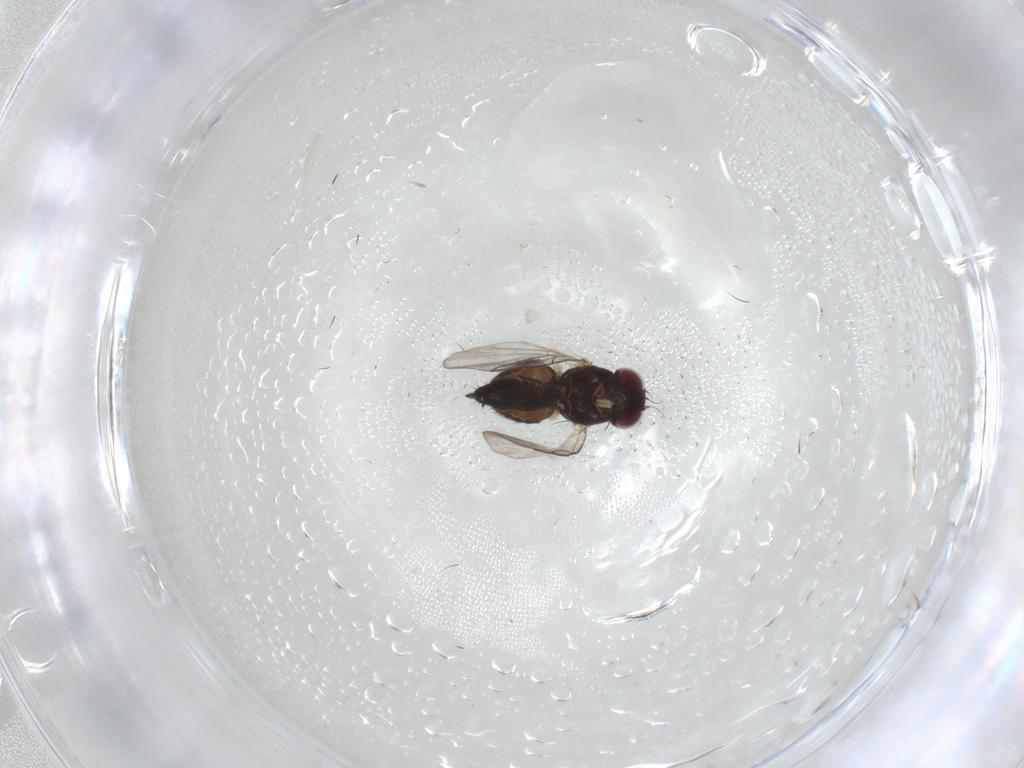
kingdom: Animalia
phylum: Arthropoda
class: Insecta
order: Diptera
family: Agromyzidae
